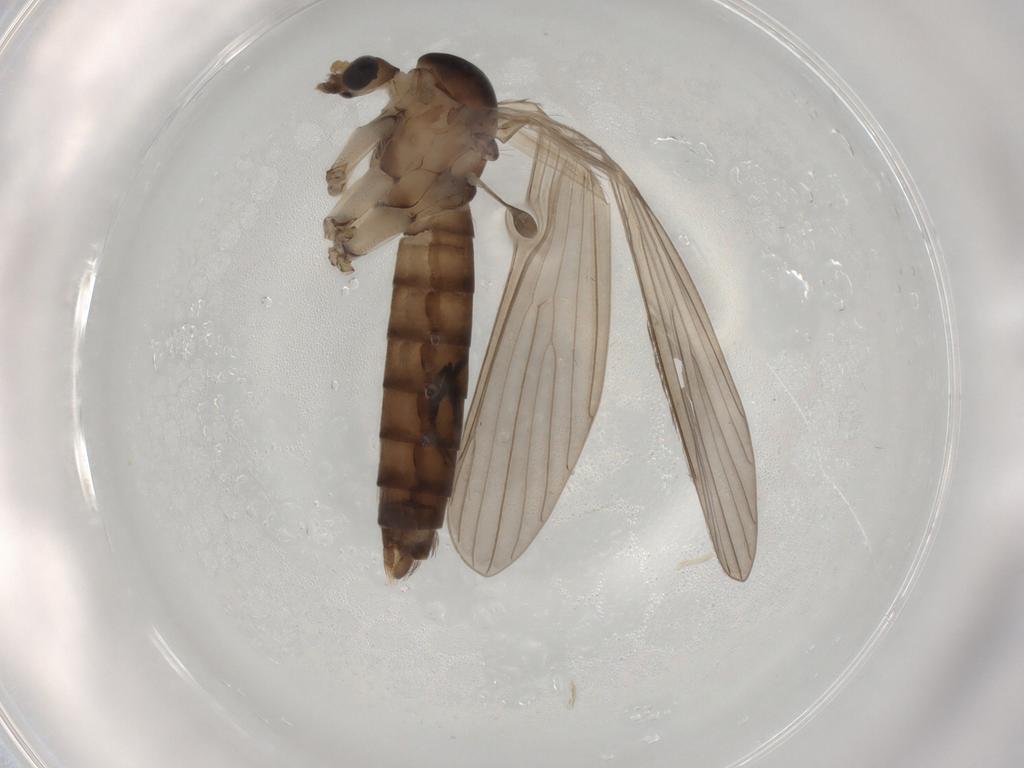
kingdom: Animalia
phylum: Arthropoda
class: Insecta
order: Diptera
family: Psychodidae
